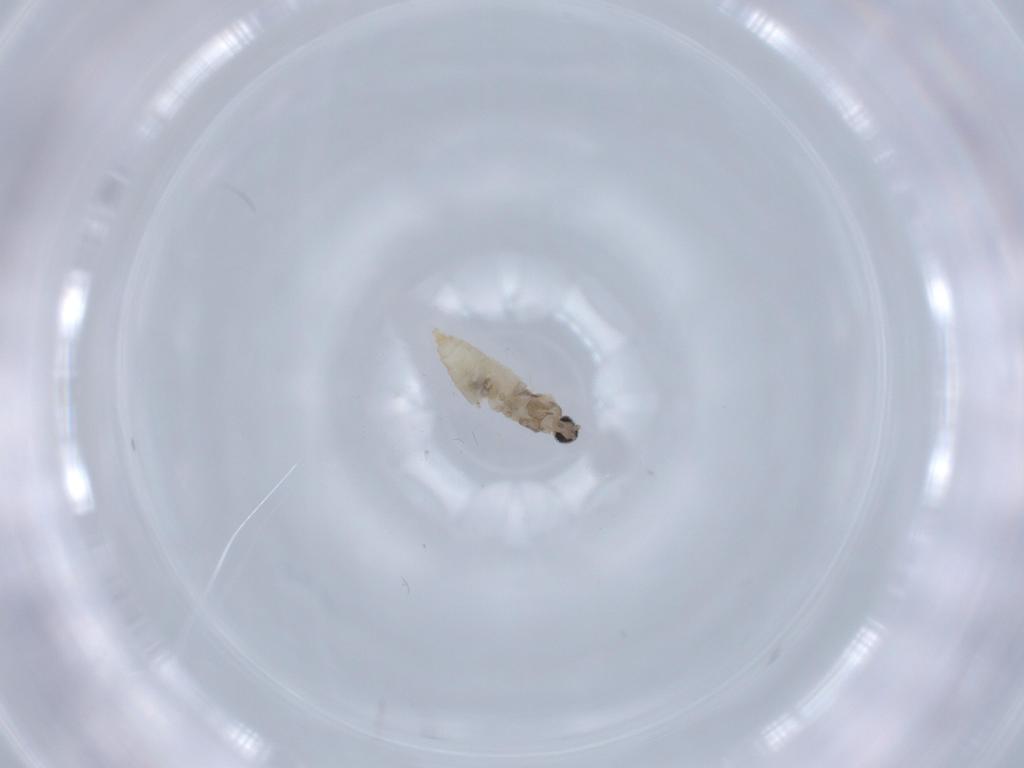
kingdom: Animalia
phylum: Arthropoda
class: Insecta
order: Diptera
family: Cecidomyiidae
